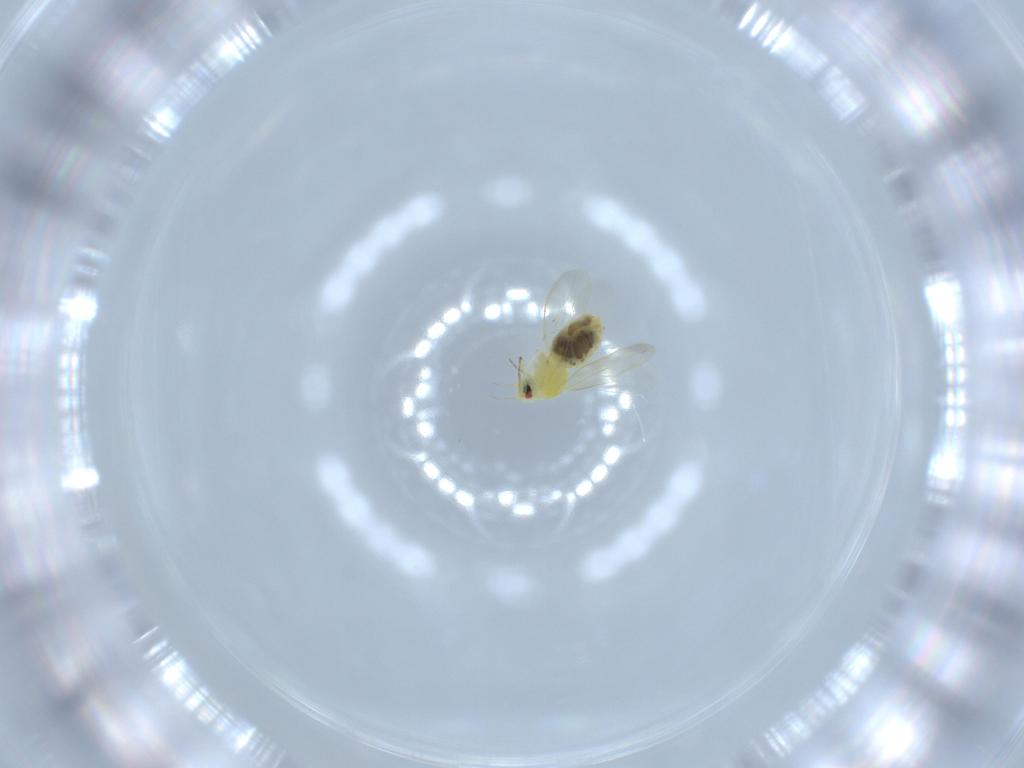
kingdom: Animalia
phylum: Arthropoda
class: Insecta
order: Hemiptera
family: Aleyrodidae
